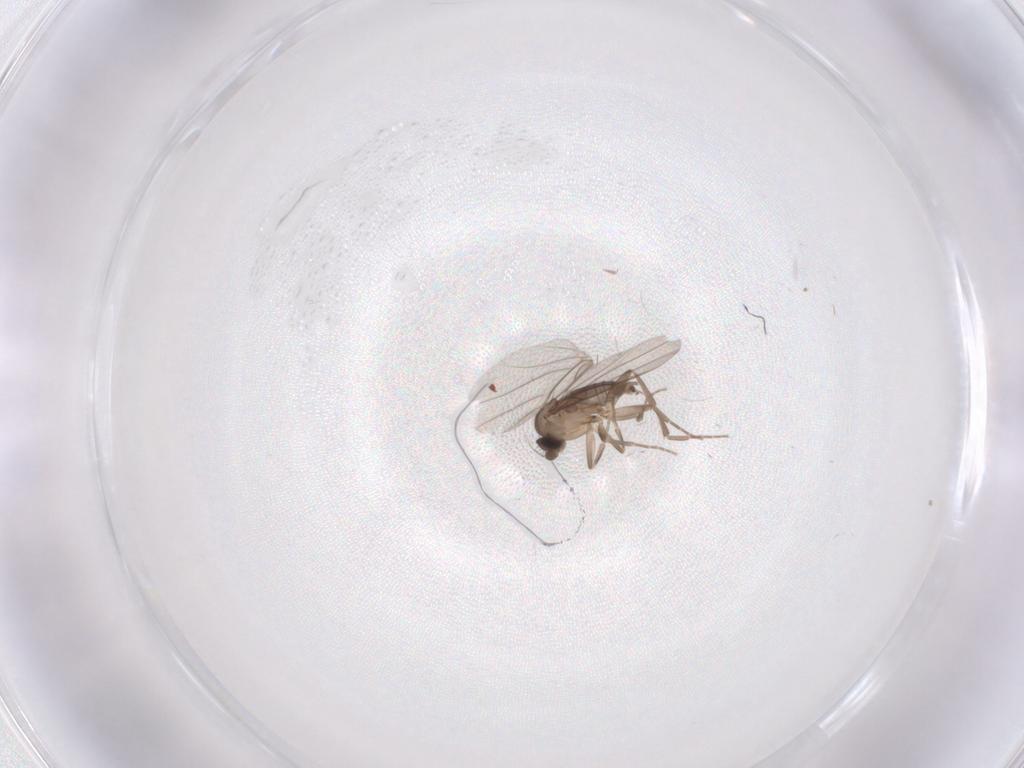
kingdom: Animalia
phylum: Arthropoda
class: Insecta
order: Diptera
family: Phoridae
